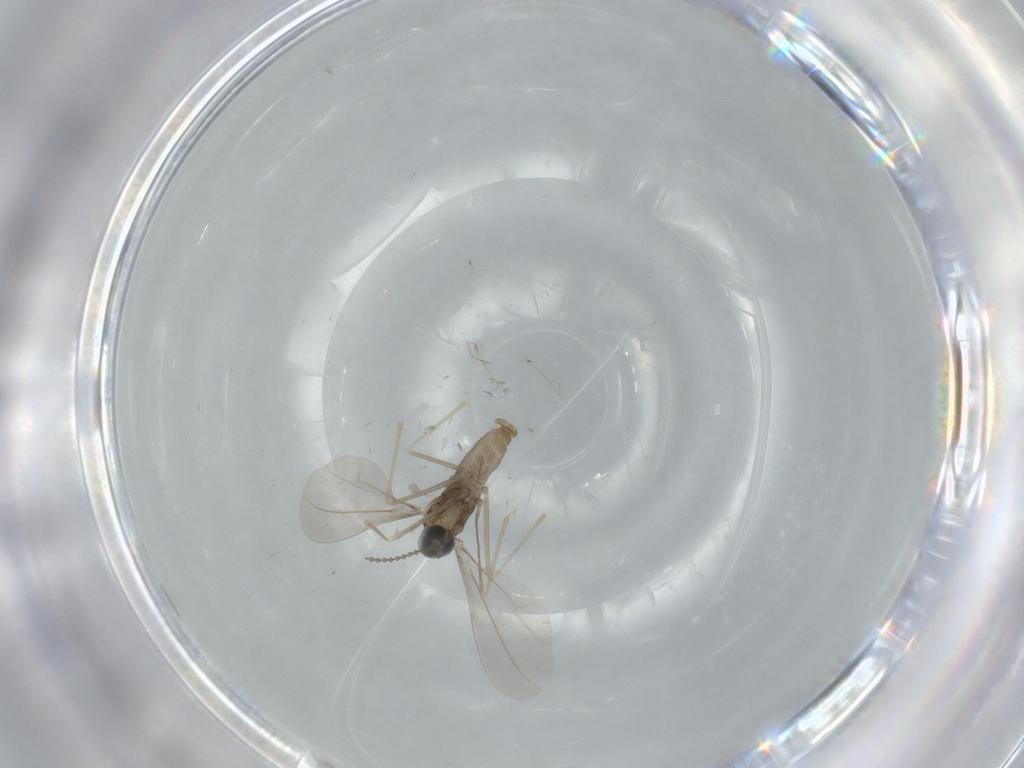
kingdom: Animalia
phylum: Arthropoda
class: Insecta
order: Diptera
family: Cecidomyiidae
